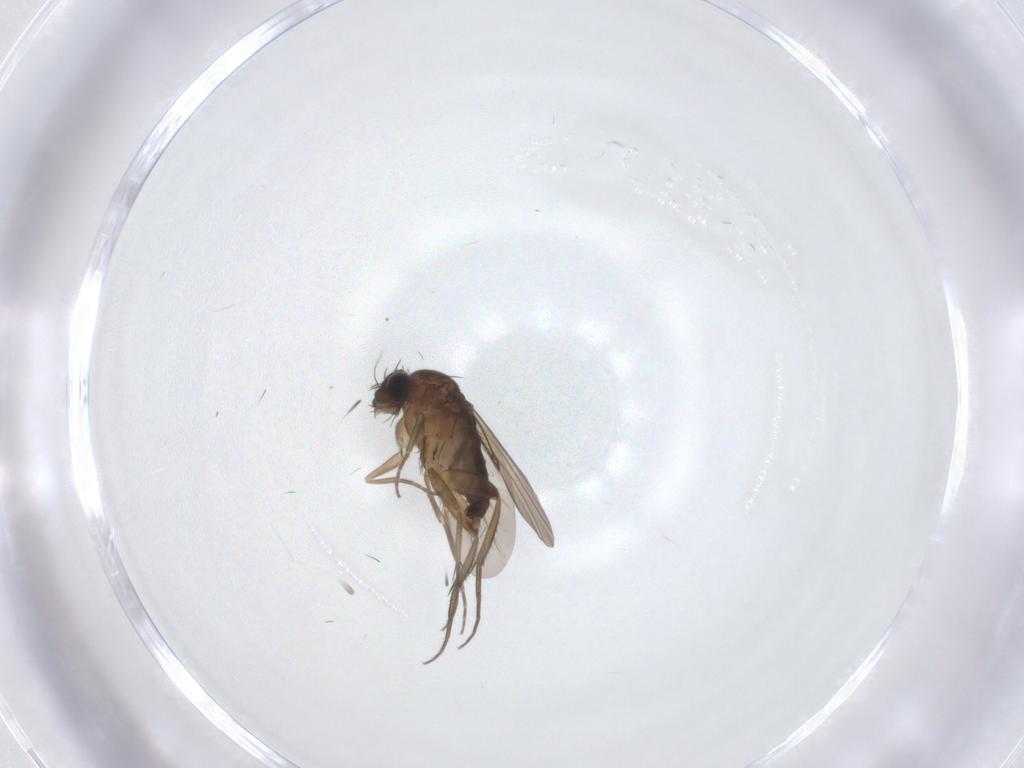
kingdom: Animalia
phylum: Arthropoda
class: Insecta
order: Diptera
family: Phoridae
